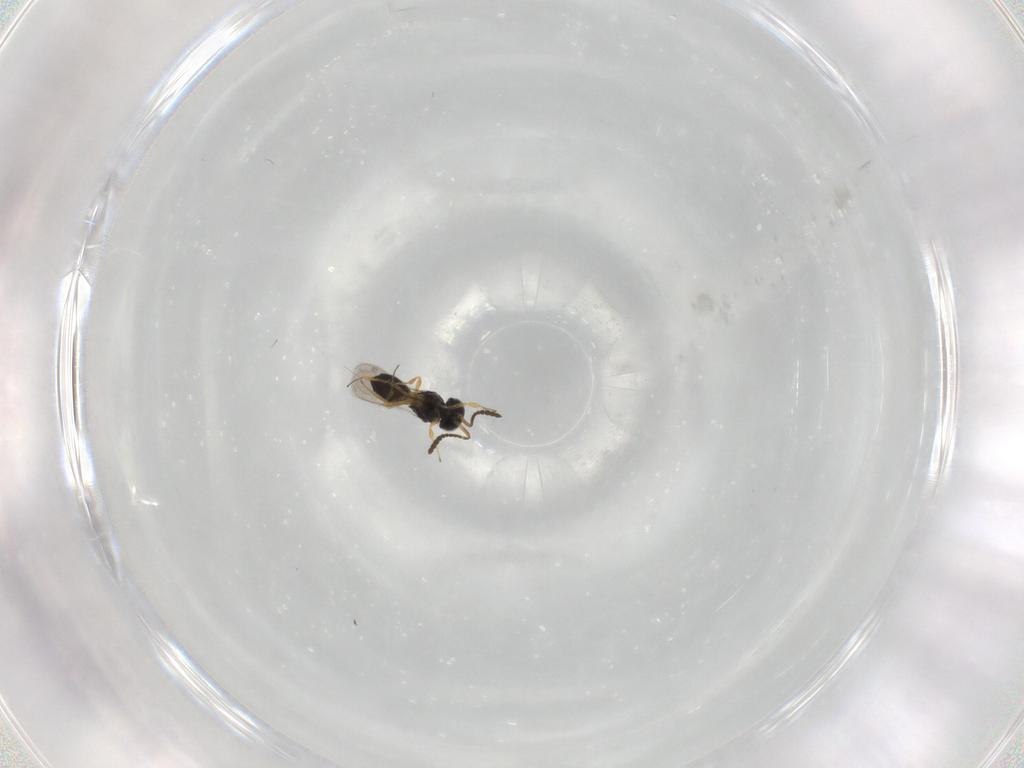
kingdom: Animalia
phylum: Arthropoda
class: Insecta
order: Hymenoptera
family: Scelionidae
